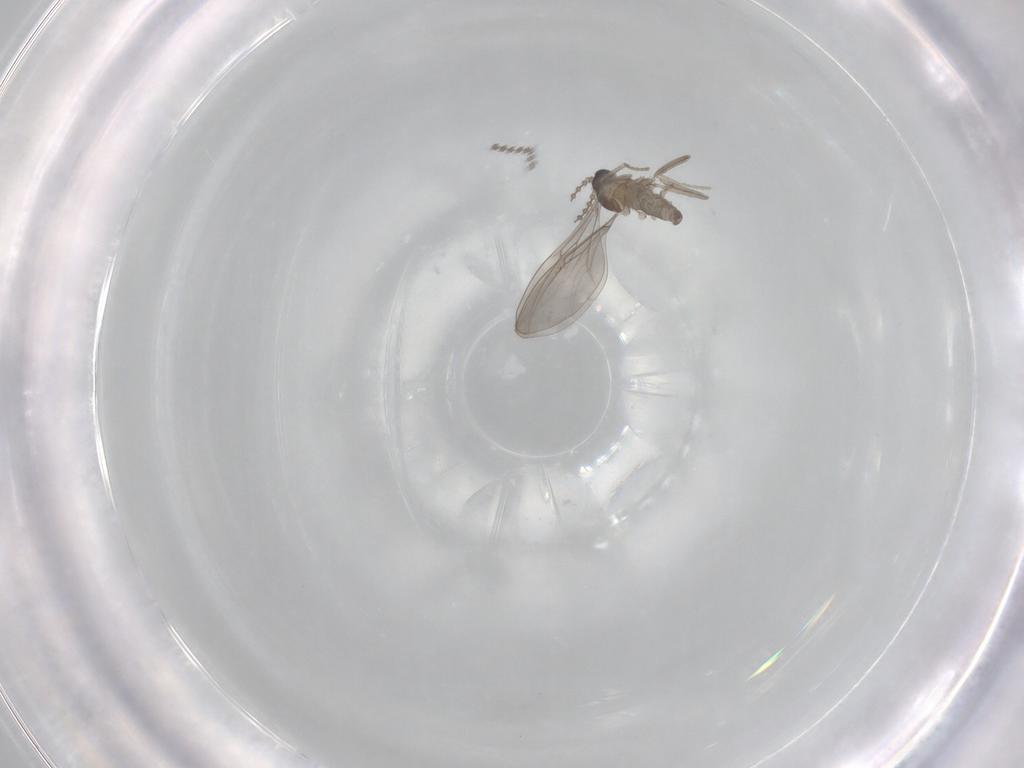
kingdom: Animalia
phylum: Arthropoda
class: Insecta
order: Diptera
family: Cecidomyiidae
